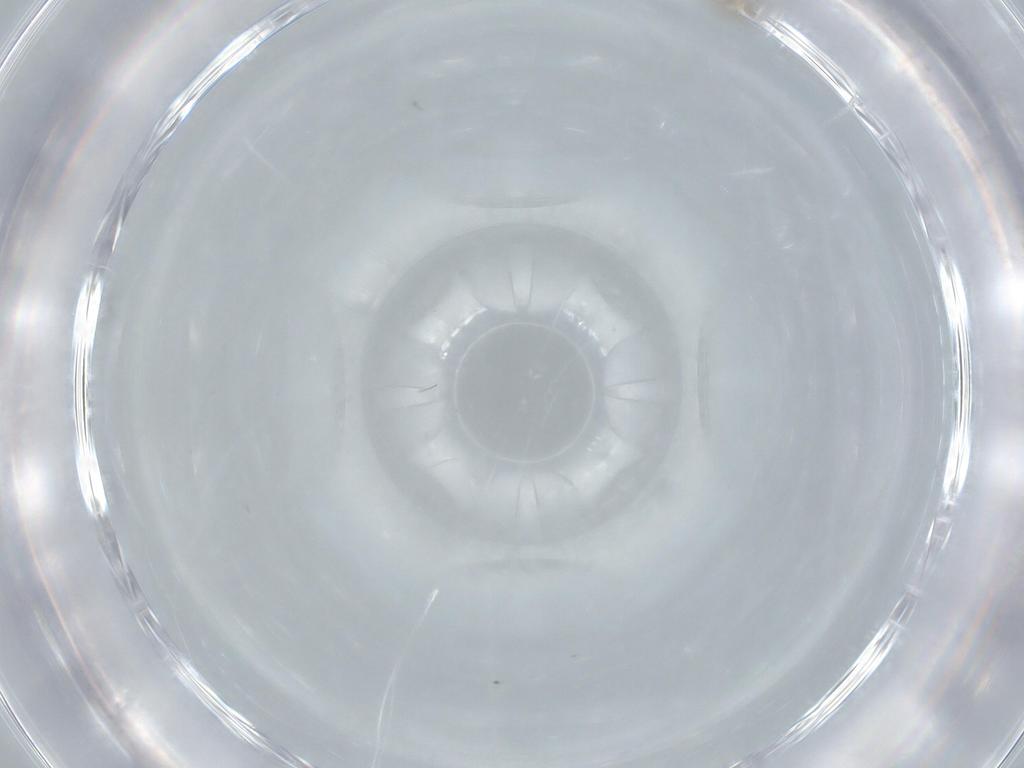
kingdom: Animalia
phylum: Arthropoda
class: Insecta
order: Diptera
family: Cecidomyiidae
